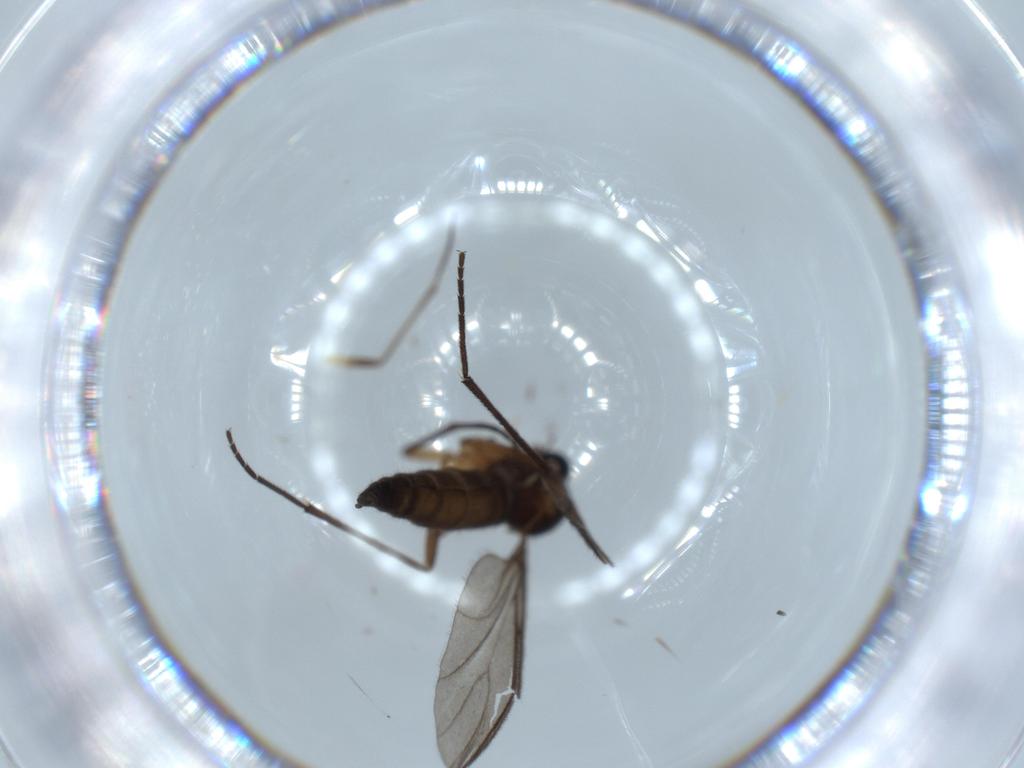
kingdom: Animalia
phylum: Arthropoda
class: Insecta
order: Diptera
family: Sciaridae
